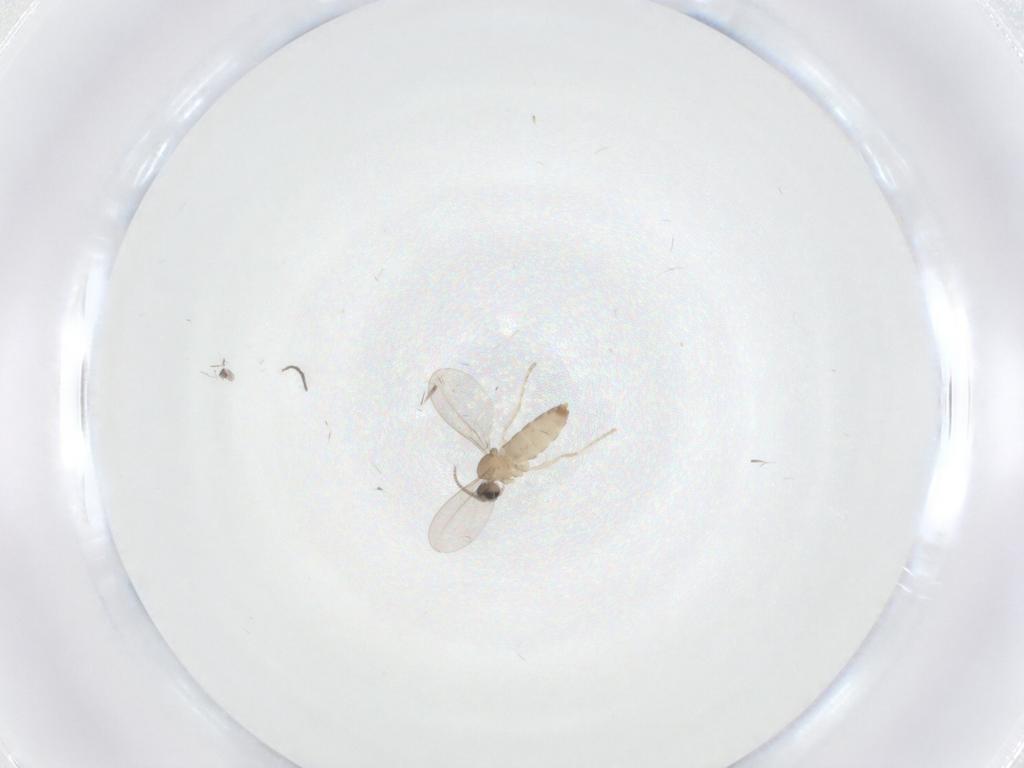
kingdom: Animalia
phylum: Arthropoda
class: Insecta
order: Diptera
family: Cecidomyiidae
